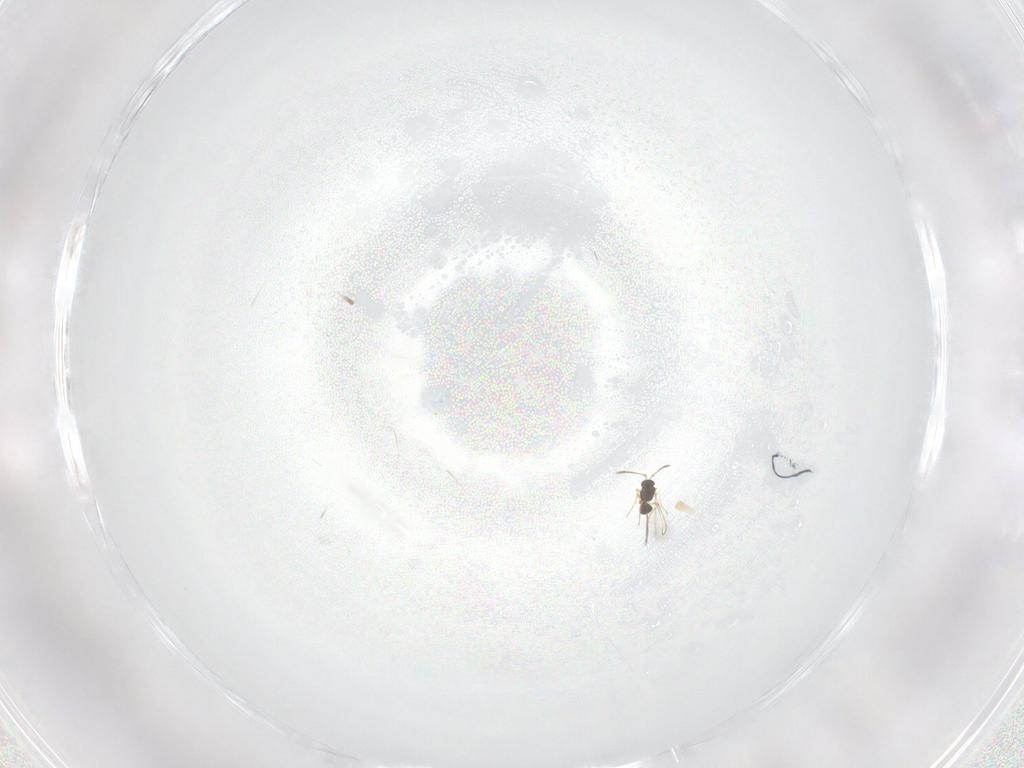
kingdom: Animalia
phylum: Arthropoda
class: Insecta
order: Hymenoptera
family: Mymaridae
